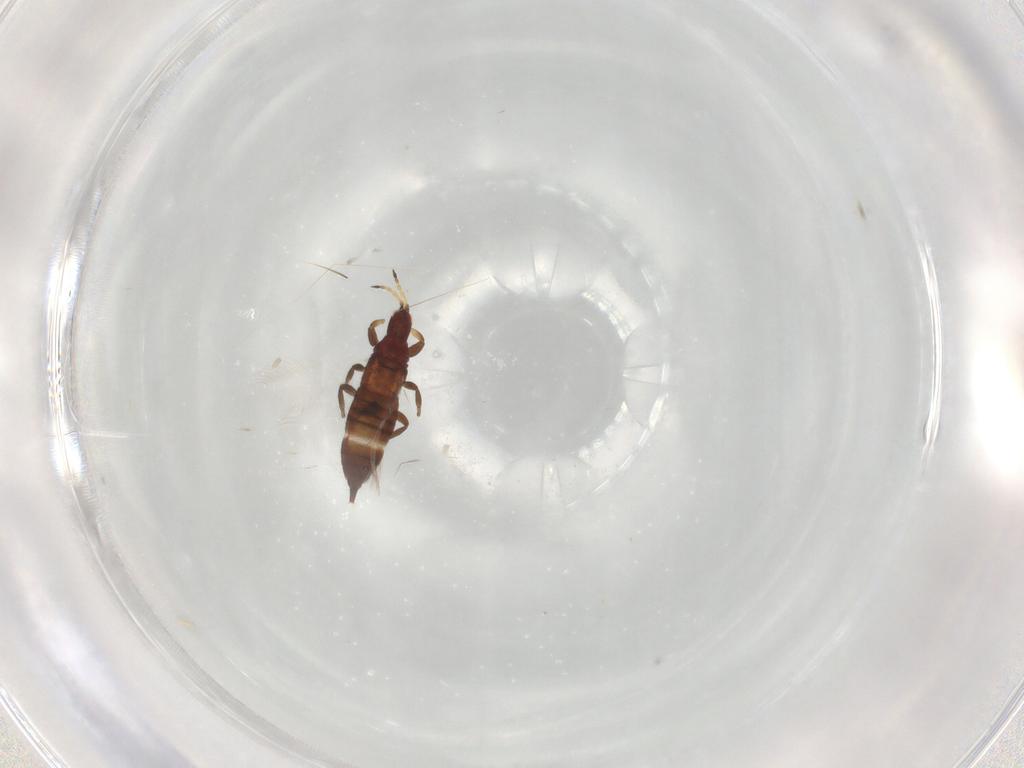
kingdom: Animalia
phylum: Arthropoda
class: Insecta
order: Thysanoptera
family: Phlaeothripidae
